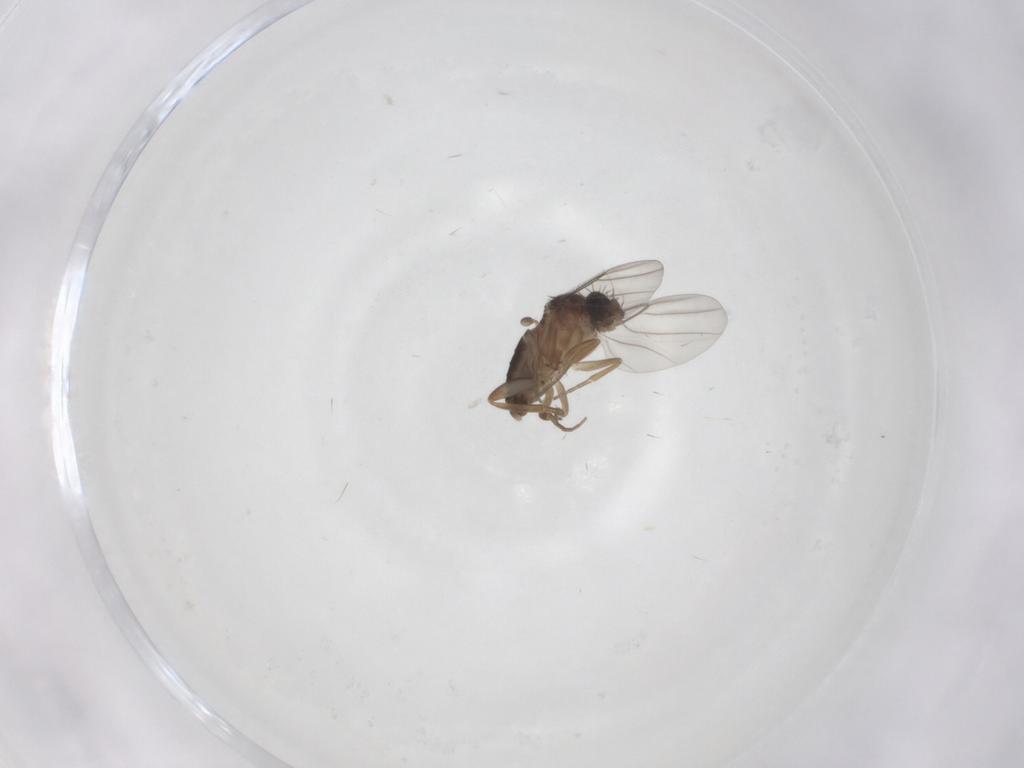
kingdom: Animalia
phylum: Arthropoda
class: Insecta
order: Diptera
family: Phoridae
